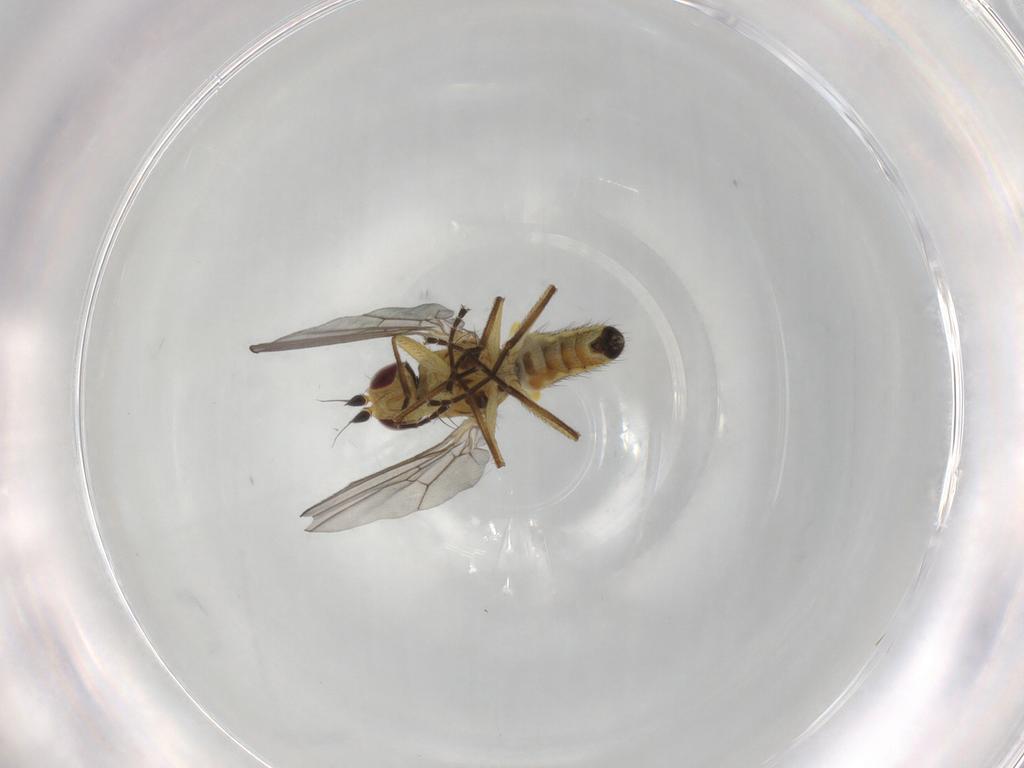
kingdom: Animalia
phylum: Arthropoda
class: Insecta
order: Diptera
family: Agromyzidae
